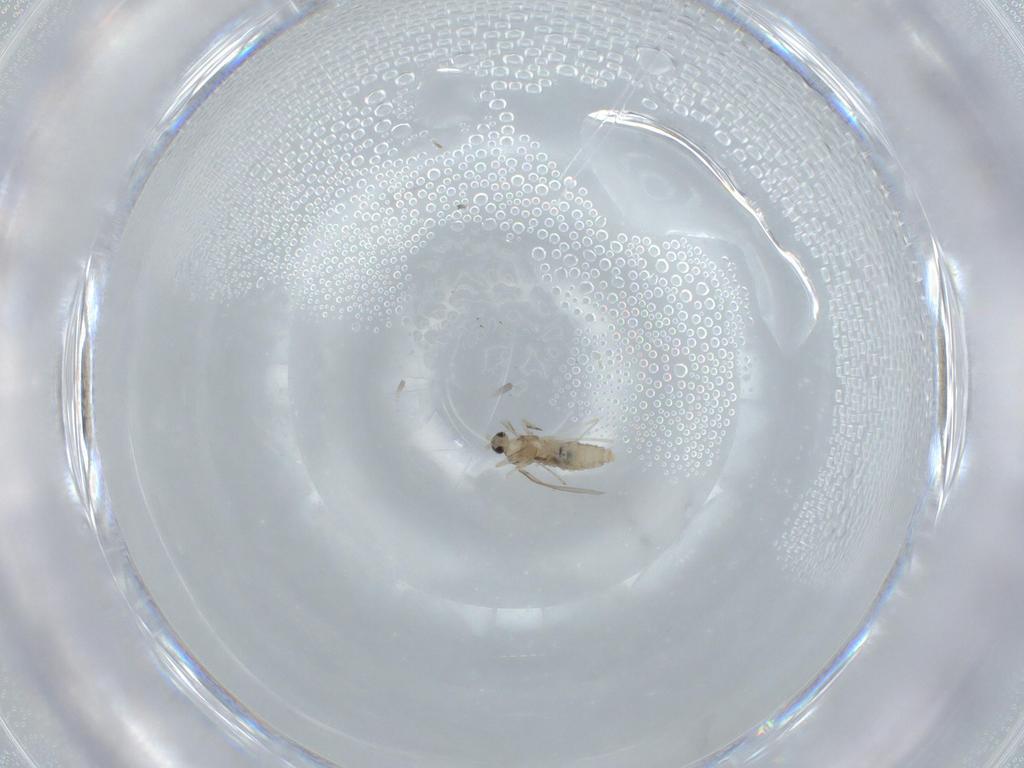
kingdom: Animalia
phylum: Arthropoda
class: Insecta
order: Diptera
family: Cecidomyiidae
